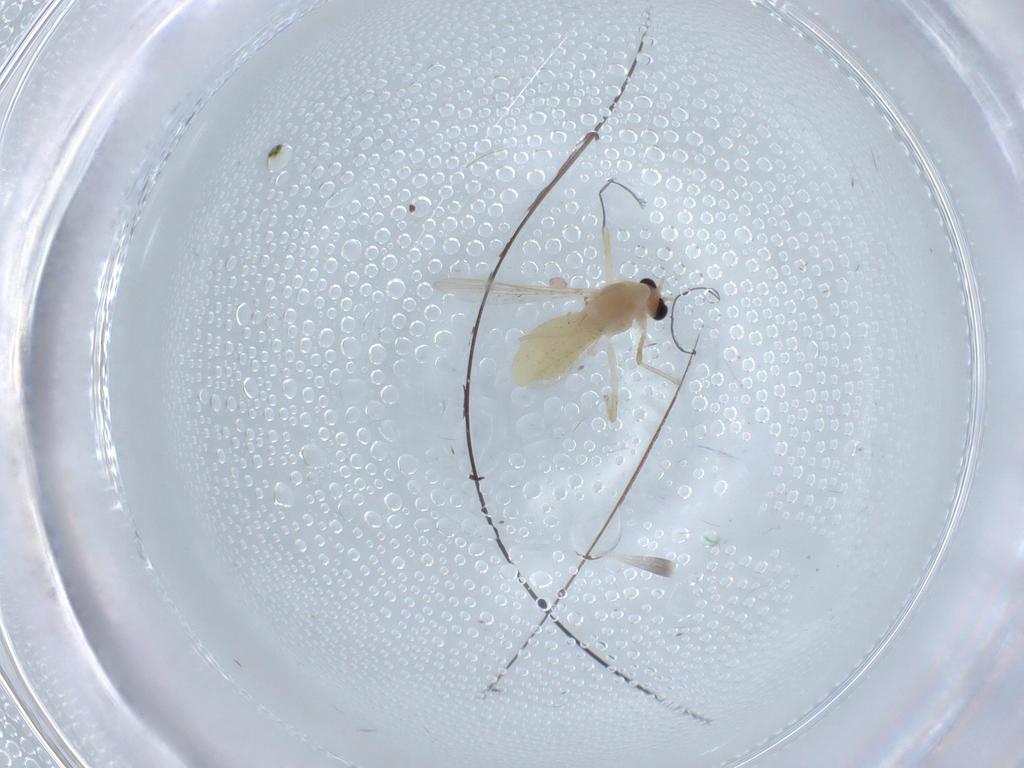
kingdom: Animalia
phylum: Arthropoda
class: Insecta
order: Diptera
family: Chironomidae
